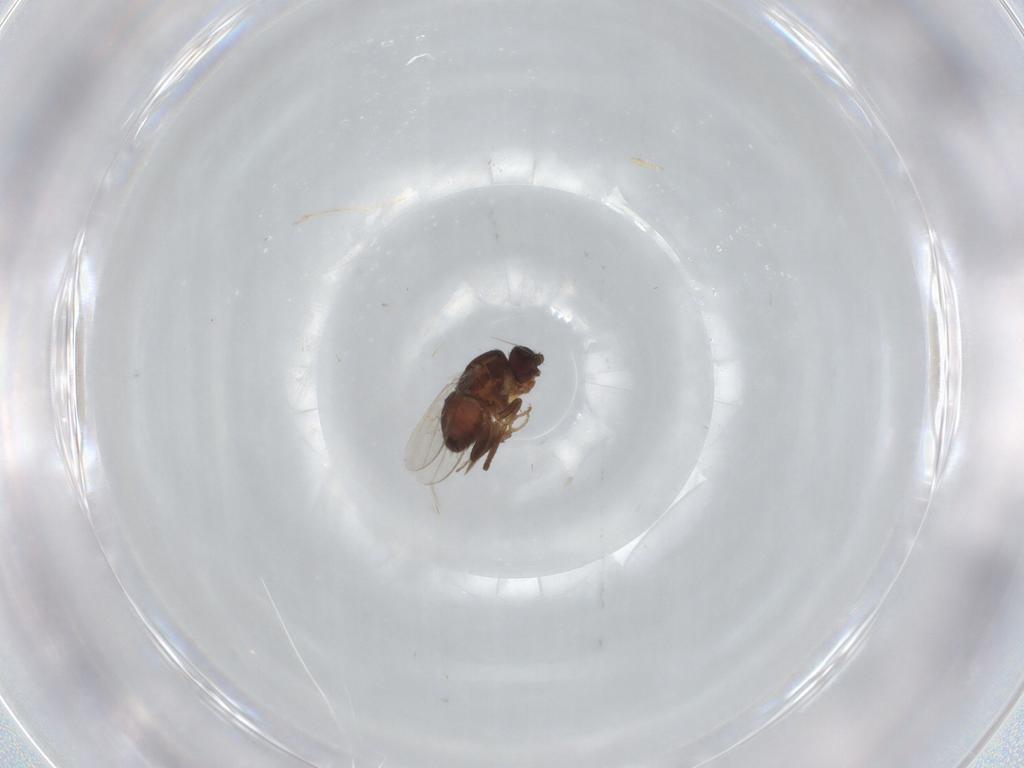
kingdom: Animalia
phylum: Arthropoda
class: Insecta
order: Diptera
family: Sphaeroceridae
